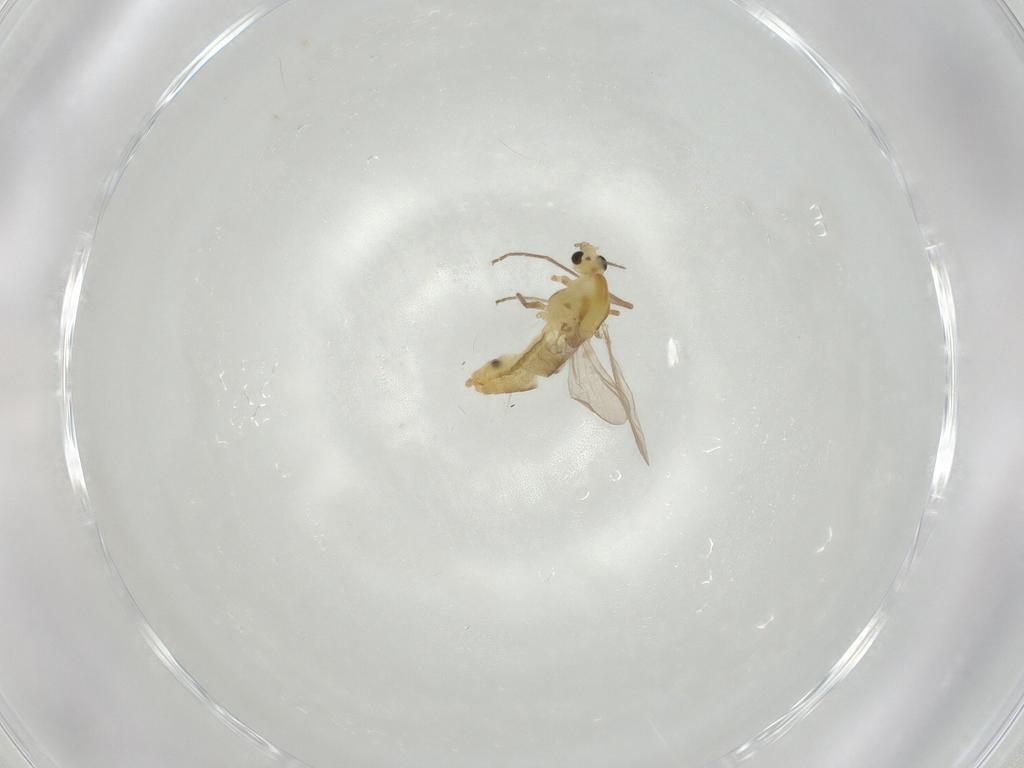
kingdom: Animalia
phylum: Arthropoda
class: Insecta
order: Diptera
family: Chironomidae
